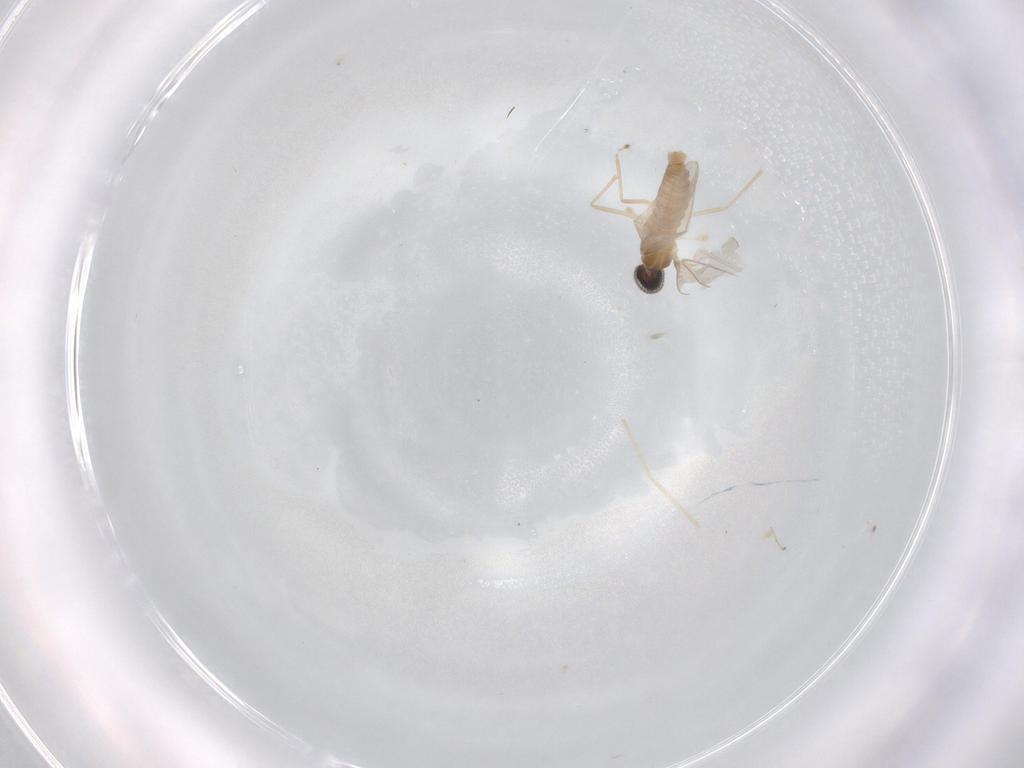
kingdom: Animalia
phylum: Arthropoda
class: Insecta
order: Diptera
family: Cecidomyiidae
